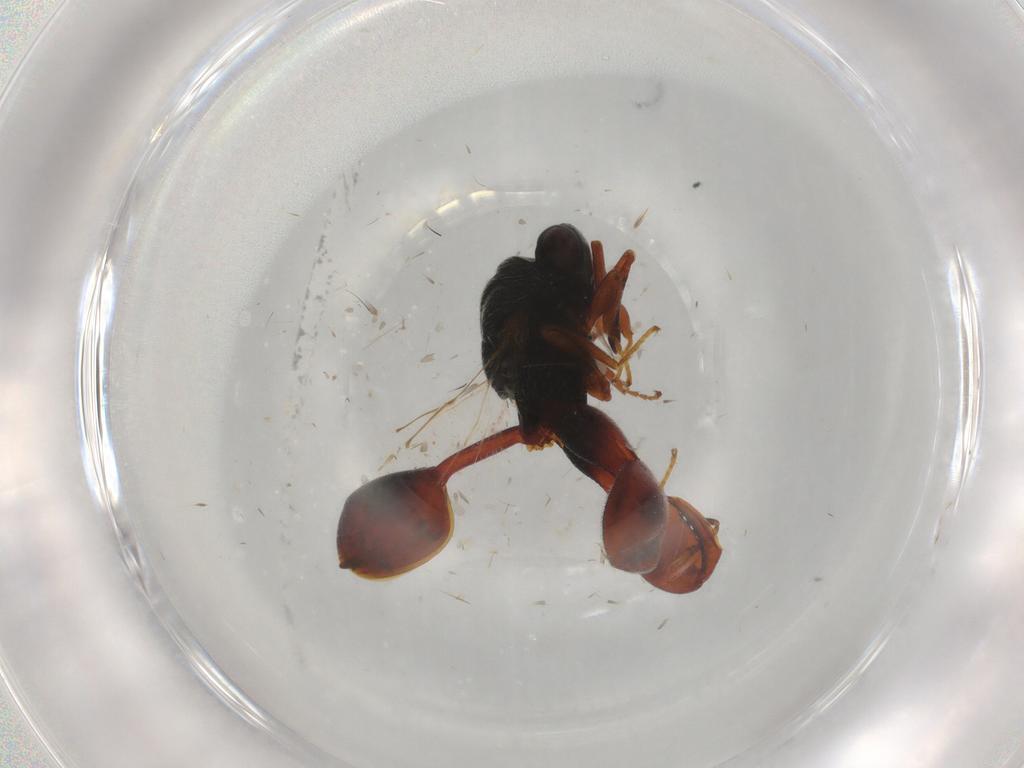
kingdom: Animalia
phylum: Arthropoda
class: Insecta
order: Hymenoptera
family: Chalcididae
